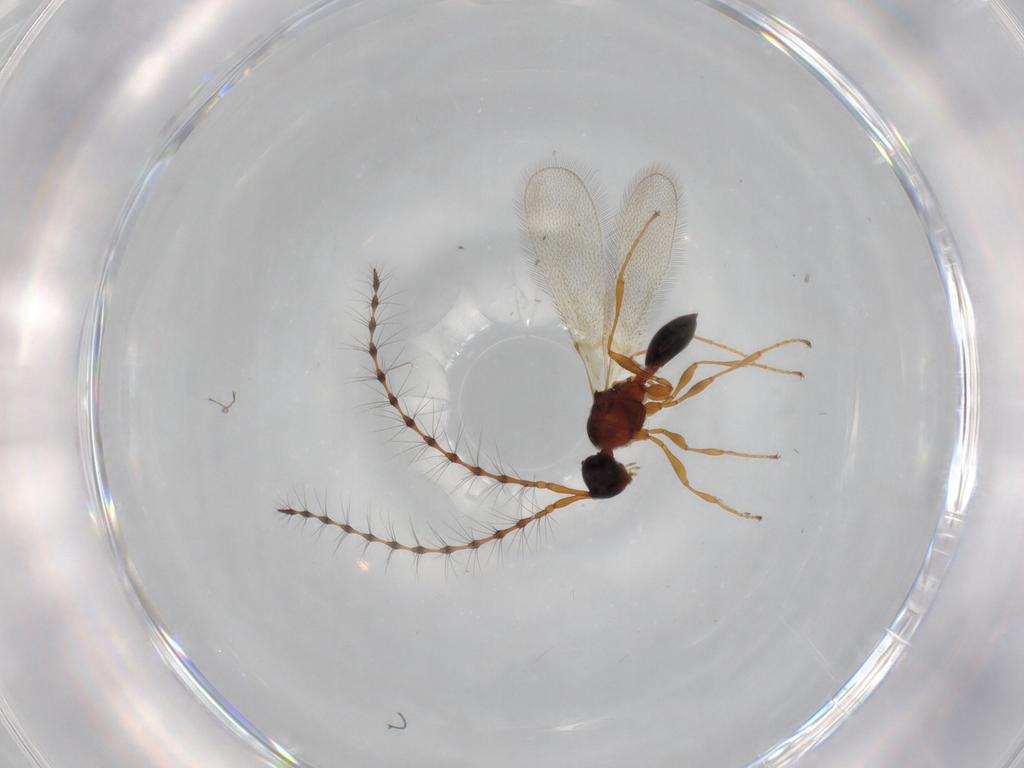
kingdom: Animalia
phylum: Arthropoda
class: Insecta
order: Hymenoptera
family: Diapriidae
